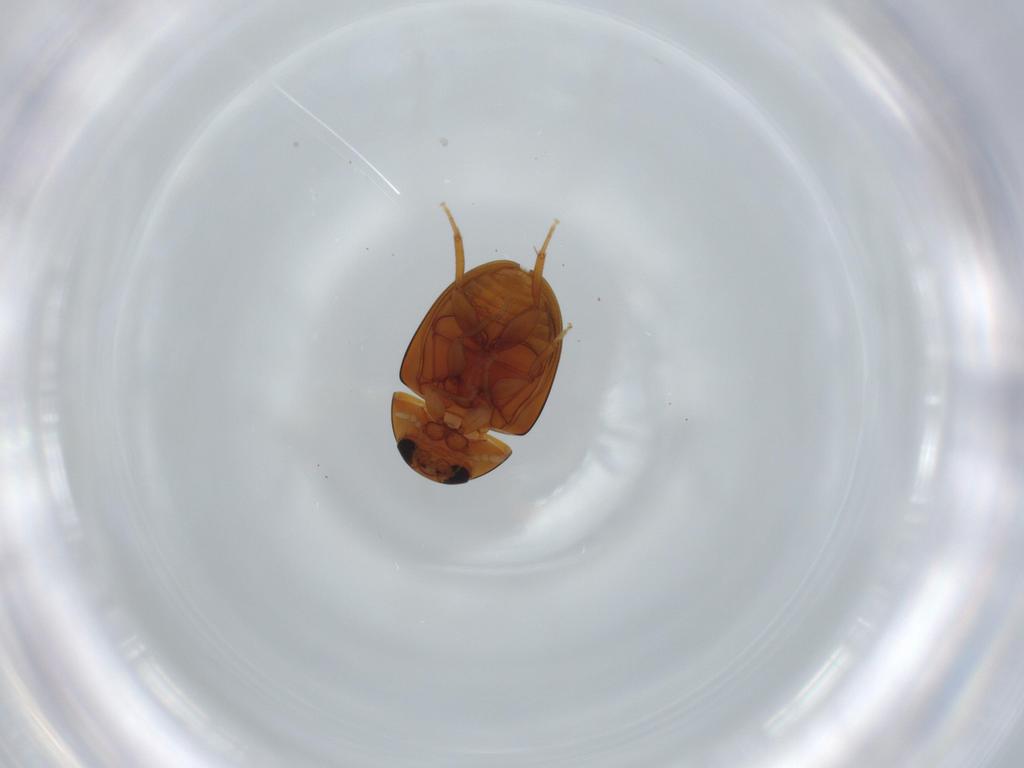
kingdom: Animalia
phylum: Arthropoda
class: Insecta
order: Coleoptera
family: Phalacridae
